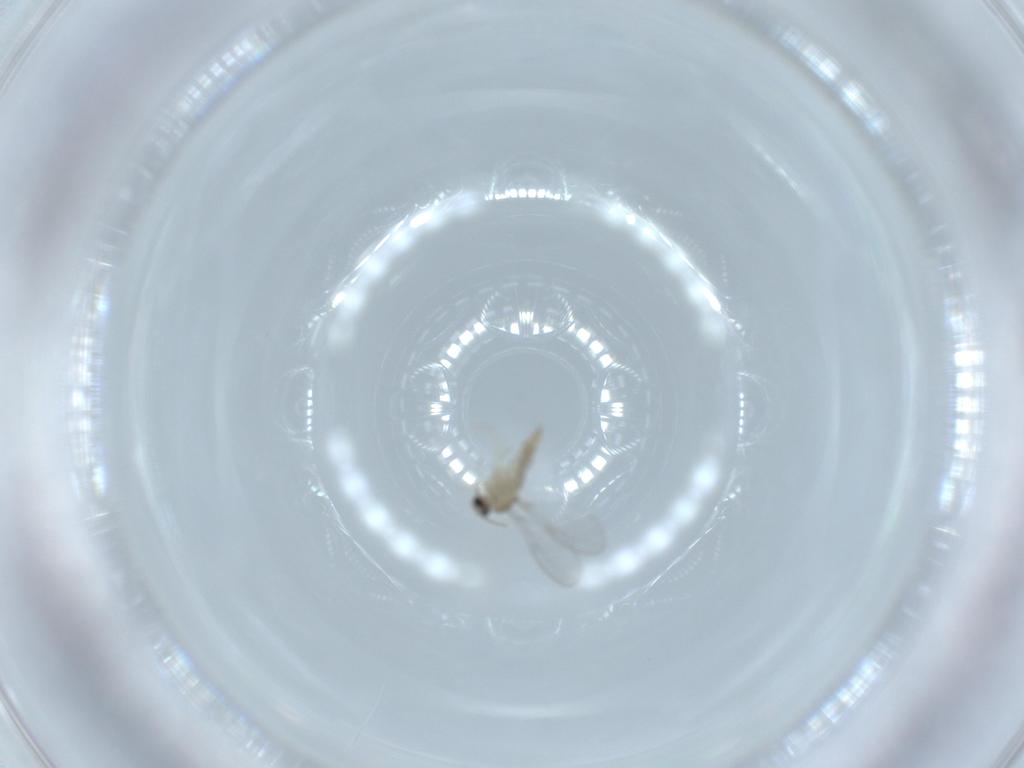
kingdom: Animalia
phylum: Arthropoda
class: Insecta
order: Diptera
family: Cecidomyiidae
